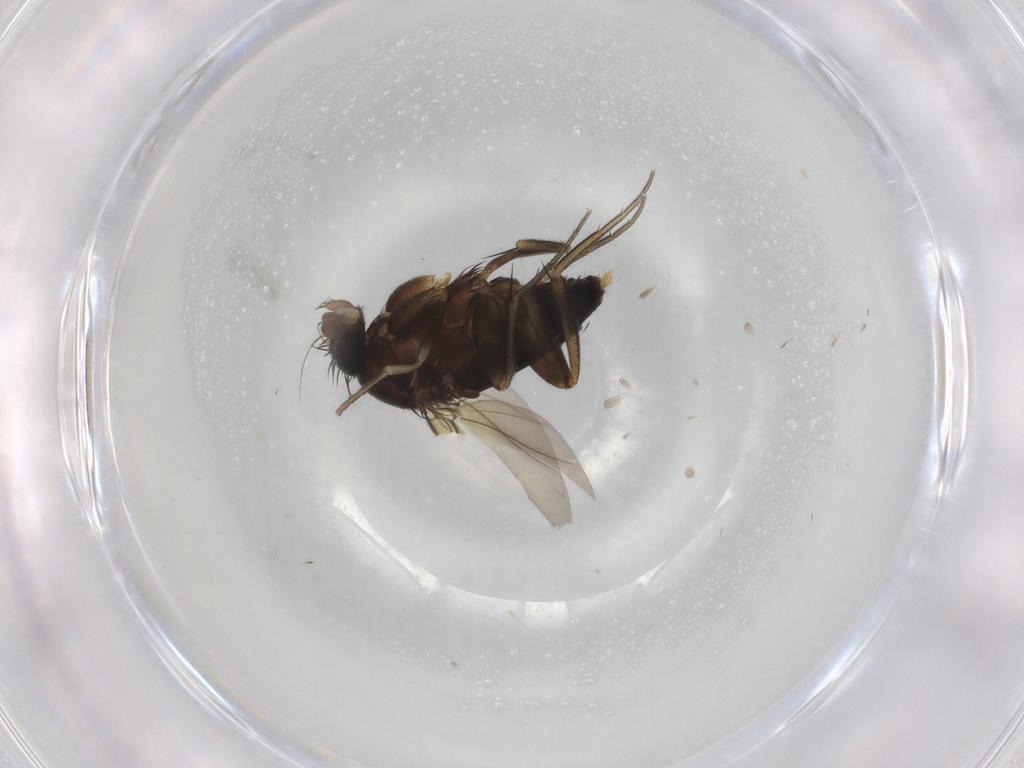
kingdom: Animalia
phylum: Arthropoda
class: Insecta
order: Diptera
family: Phoridae
